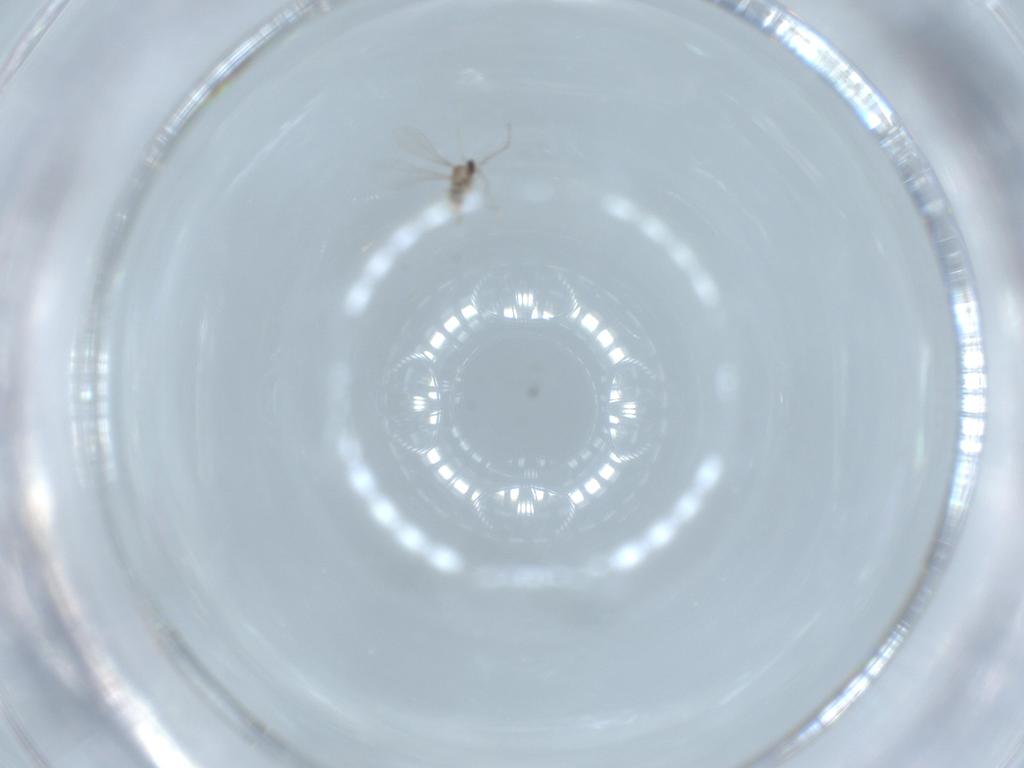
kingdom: Animalia
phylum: Arthropoda
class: Insecta
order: Diptera
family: Cecidomyiidae
